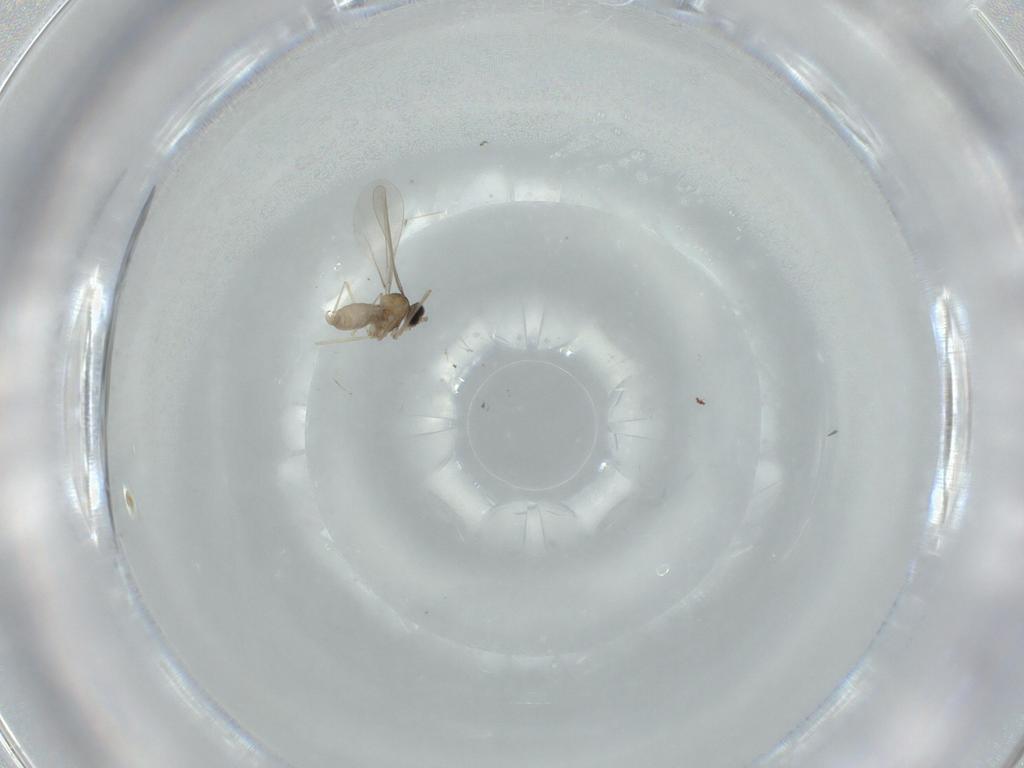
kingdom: Animalia
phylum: Arthropoda
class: Insecta
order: Diptera
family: Cecidomyiidae
